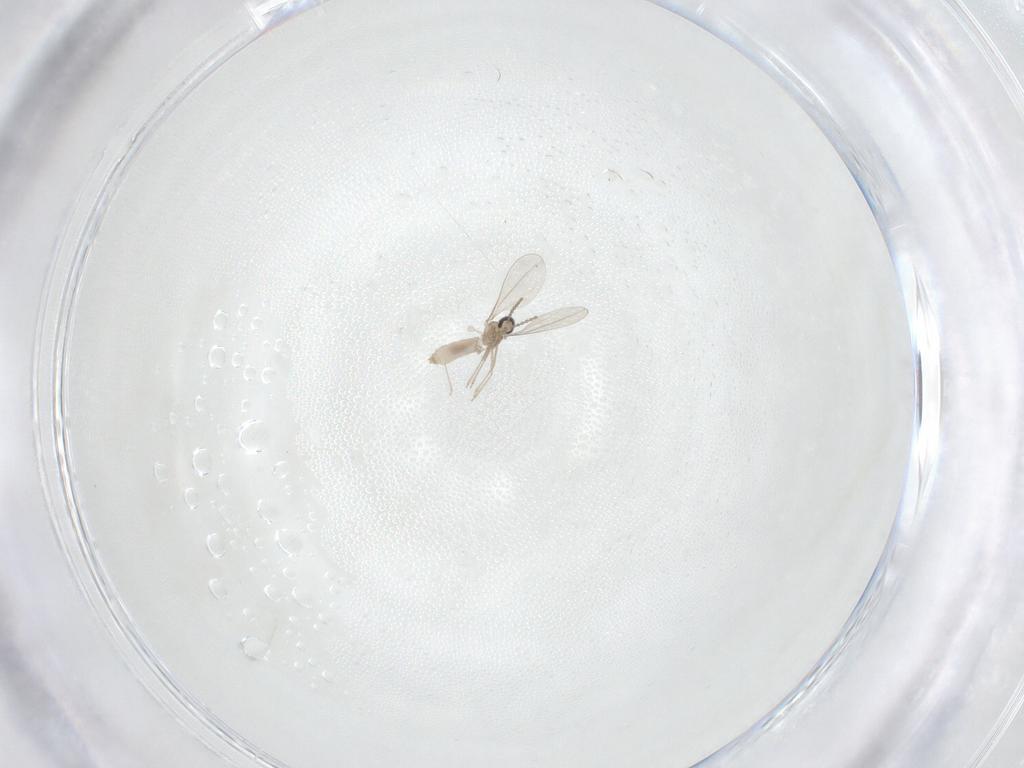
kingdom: Animalia
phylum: Arthropoda
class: Insecta
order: Diptera
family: Cecidomyiidae
